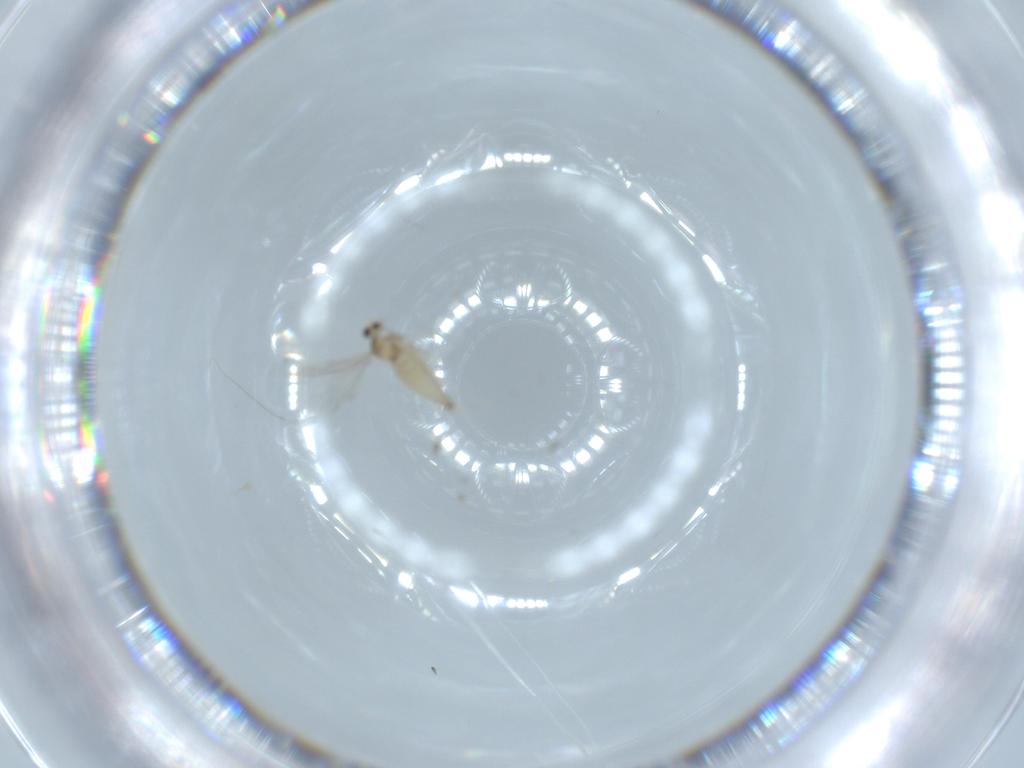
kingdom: Animalia
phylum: Arthropoda
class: Insecta
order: Diptera
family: Cecidomyiidae
